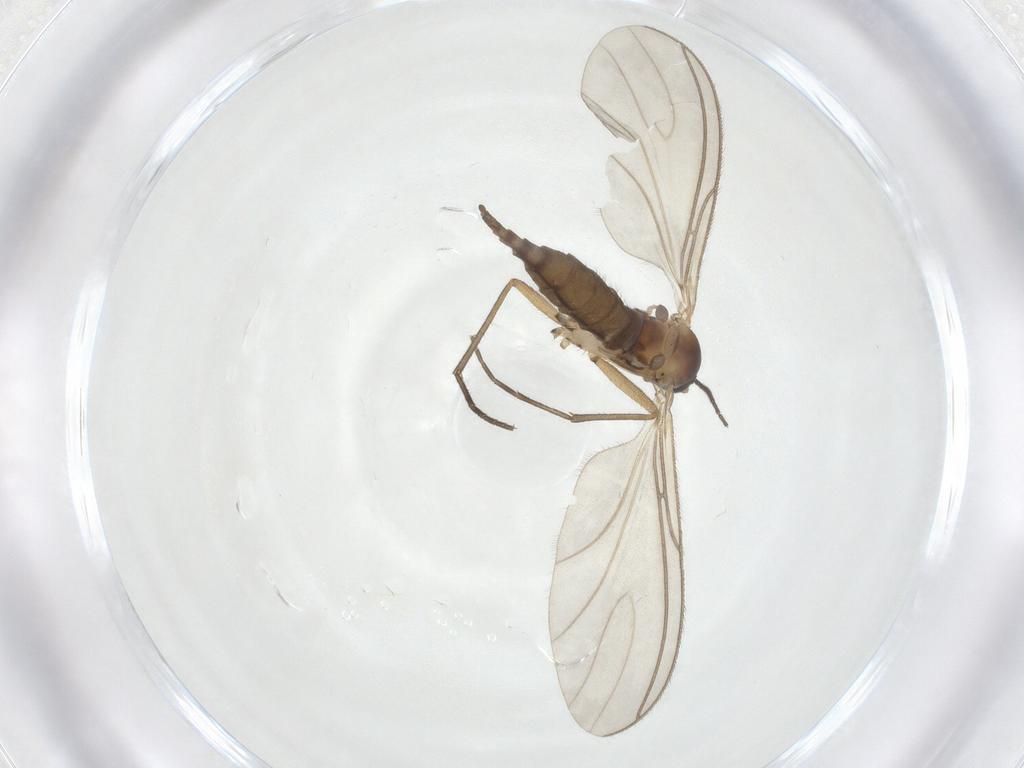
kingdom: Animalia
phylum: Arthropoda
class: Insecta
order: Diptera
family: Sciaridae
